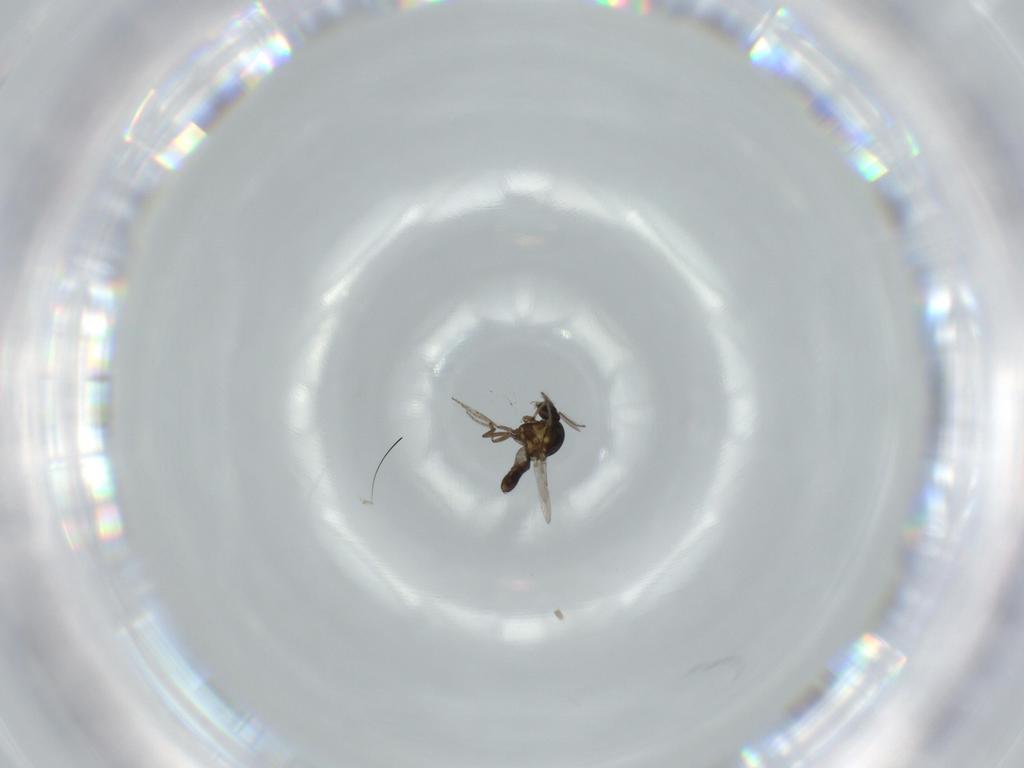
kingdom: Animalia
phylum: Arthropoda
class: Insecta
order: Diptera
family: Ceratopogonidae
